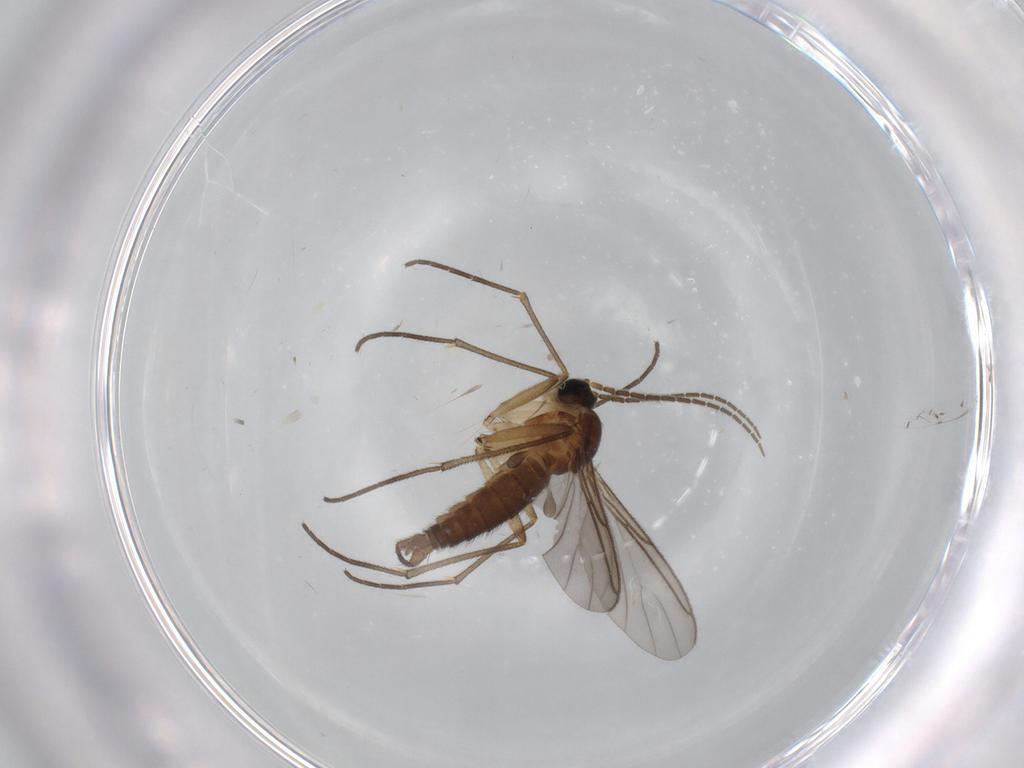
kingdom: Animalia
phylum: Arthropoda
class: Insecta
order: Diptera
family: Sciaridae
